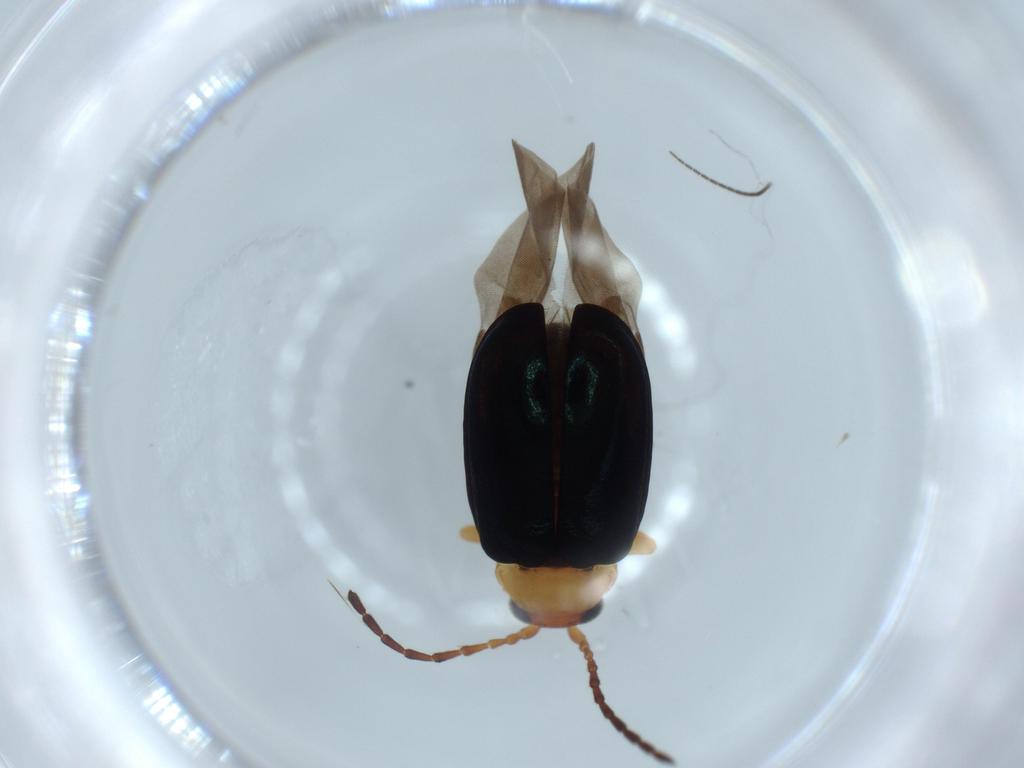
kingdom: Animalia
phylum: Arthropoda
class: Insecta
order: Coleoptera
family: Chrysomelidae
